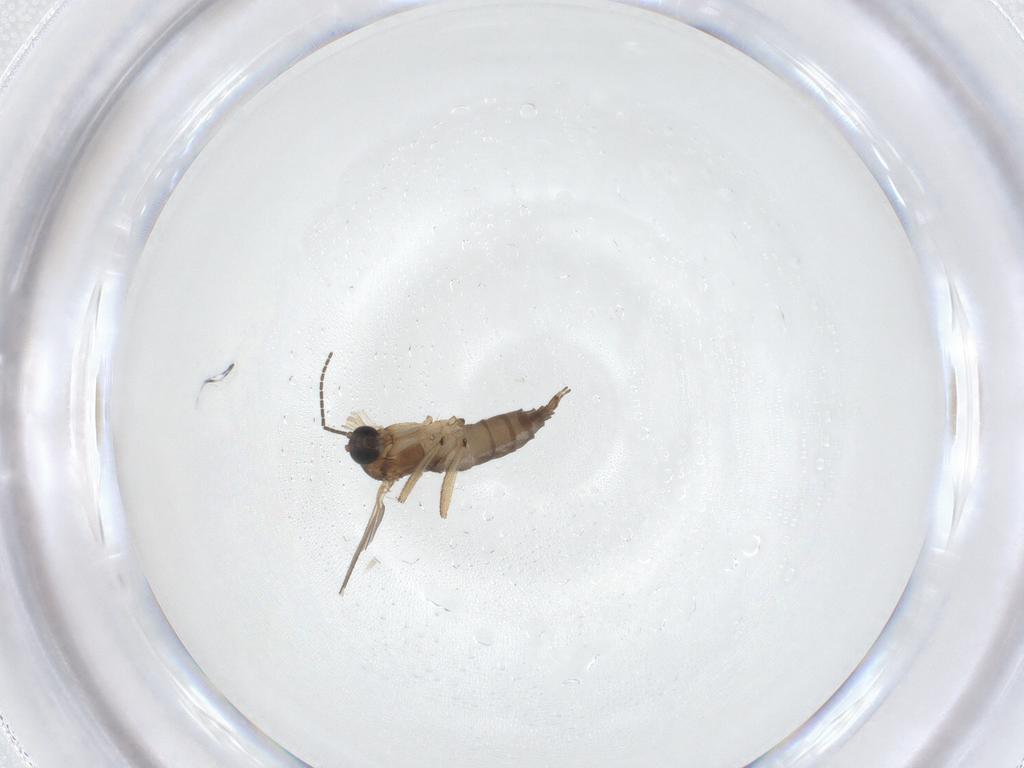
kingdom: Animalia
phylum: Arthropoda
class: Insecta
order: Diptera
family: Sciaridae
